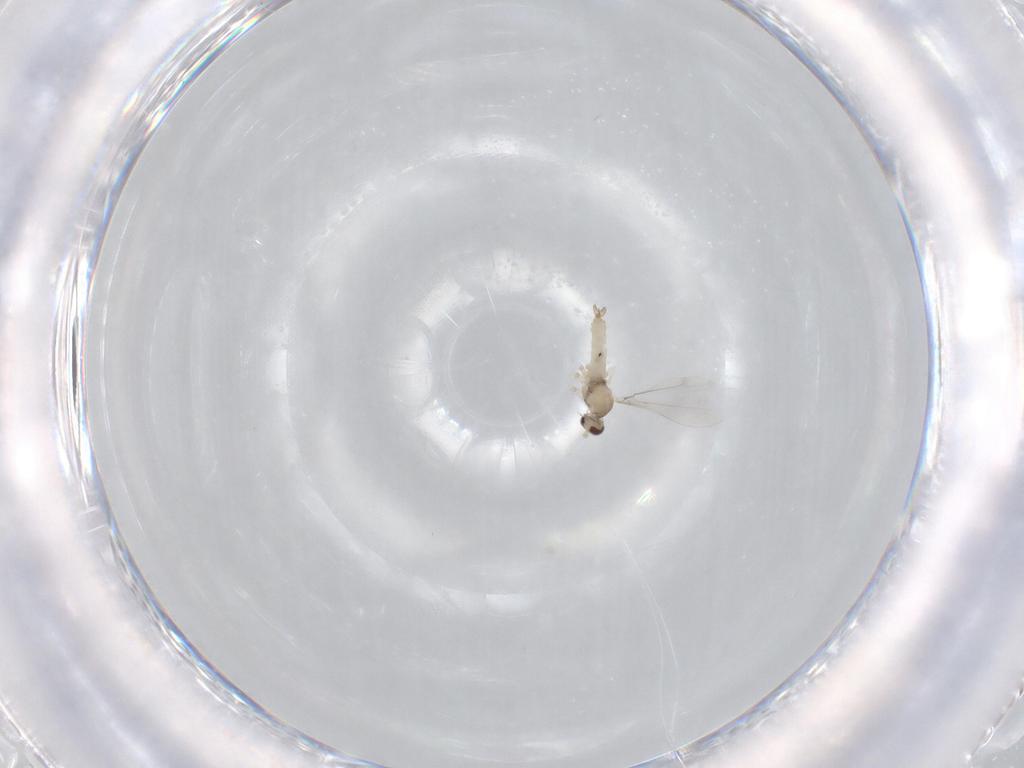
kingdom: Animalia
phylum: Arthropoda
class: Insecta
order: Diptera
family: Cecidomyiidae
